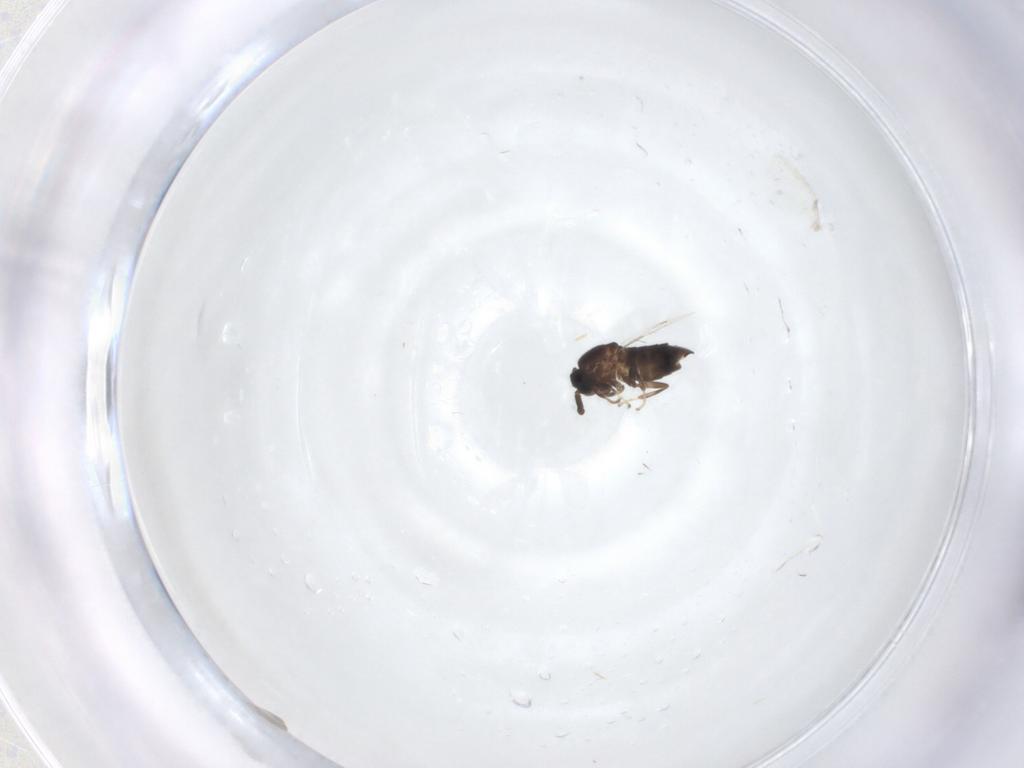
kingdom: Animalia
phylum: Arthropoda
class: Insecta
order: Diptera
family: Scatopsidae
